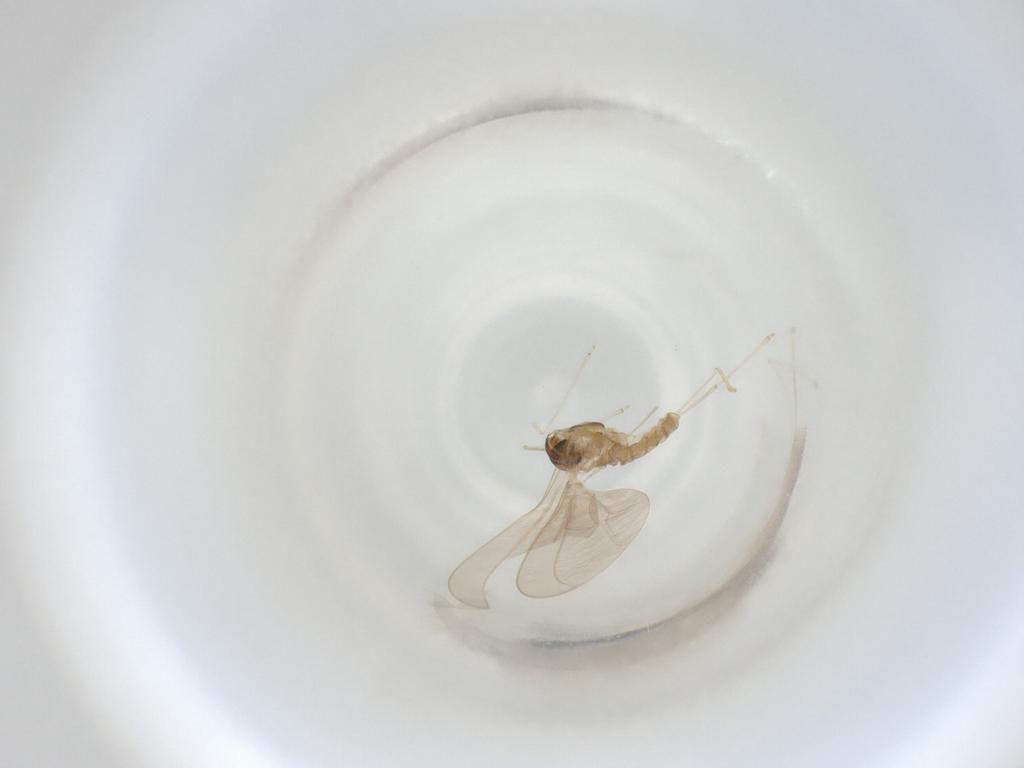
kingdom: Animalia
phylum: Arthropoda
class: Insecta
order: Diptera
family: Cecidomyiidae
